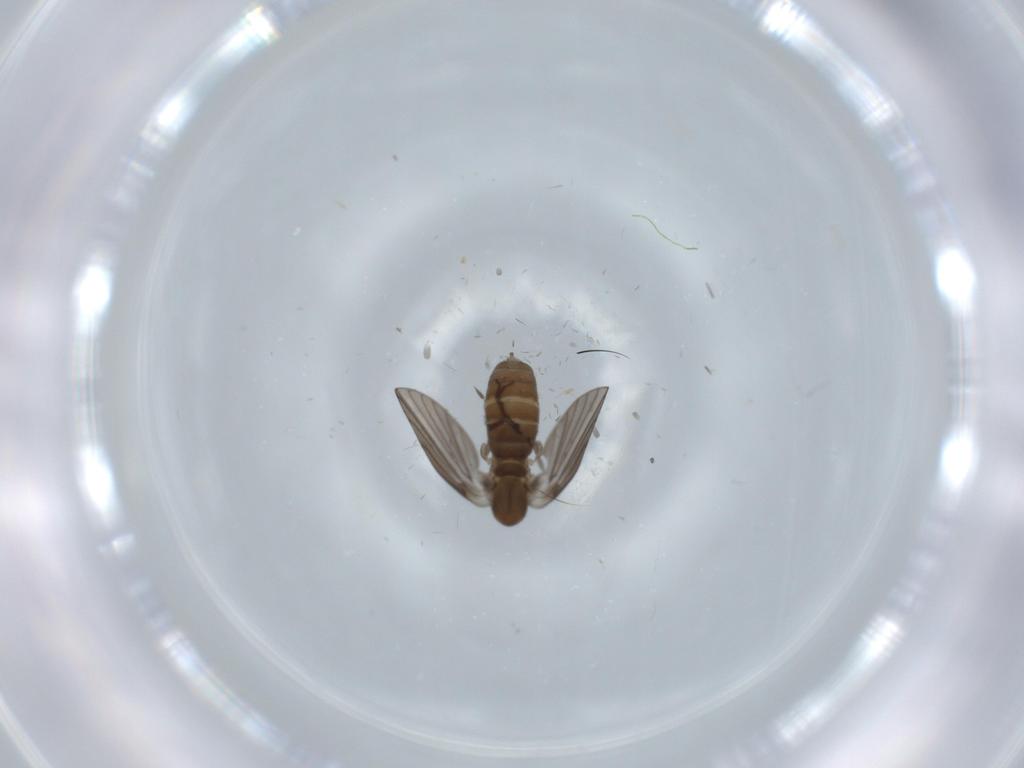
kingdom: Animalia
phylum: Arthropoda
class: Insecta
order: Diptera
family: Psychodidae
